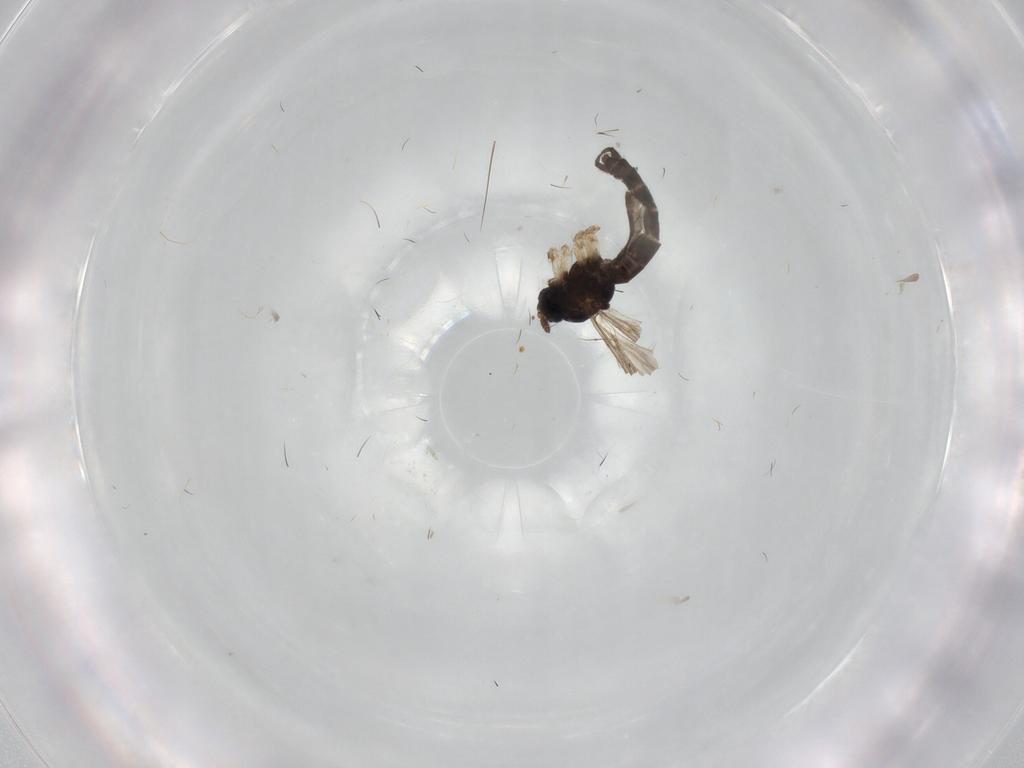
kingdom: Animalia
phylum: Arthropoda
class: Insecta
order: Diptera
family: Sciaridae
